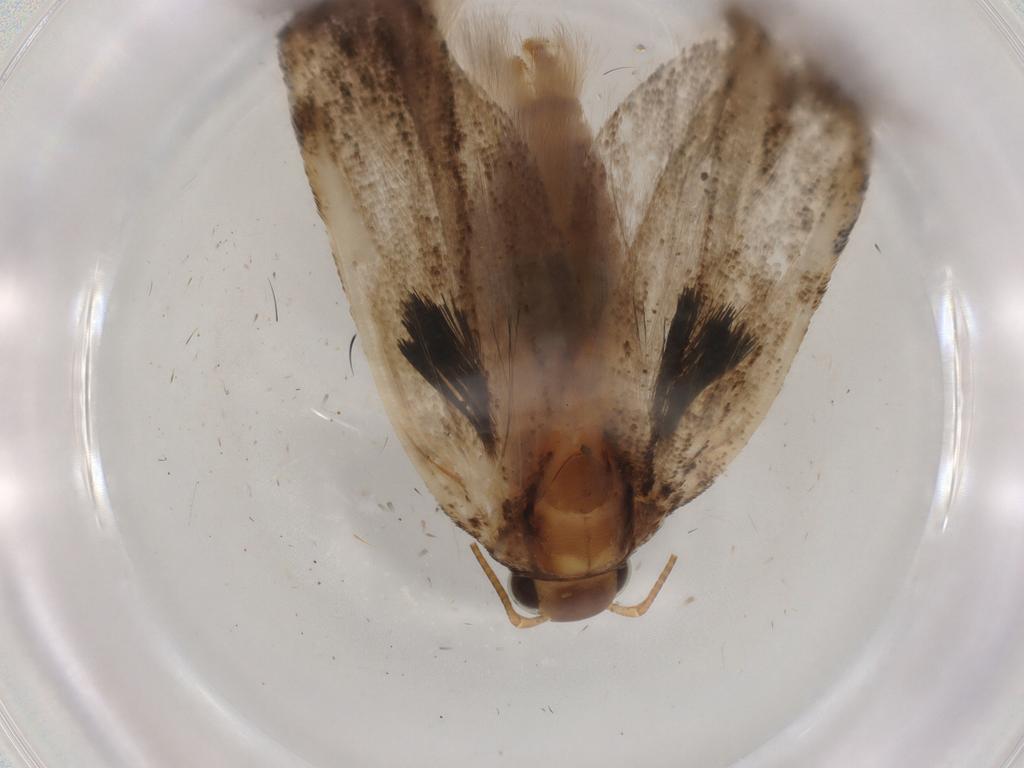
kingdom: Animalia
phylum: Arthropoda
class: Insecta
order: Lepidoptera
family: Gelechiidae
